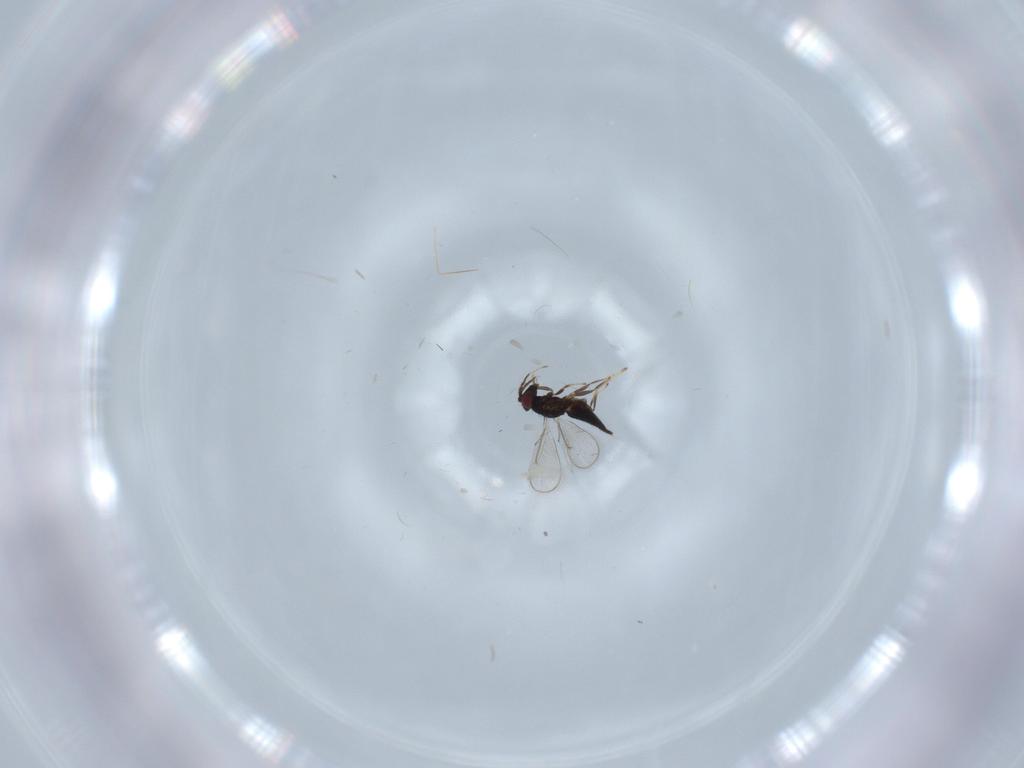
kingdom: Animalia
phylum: Arthropoda
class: Insecta
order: Hymenoptera
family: Eulophidae
